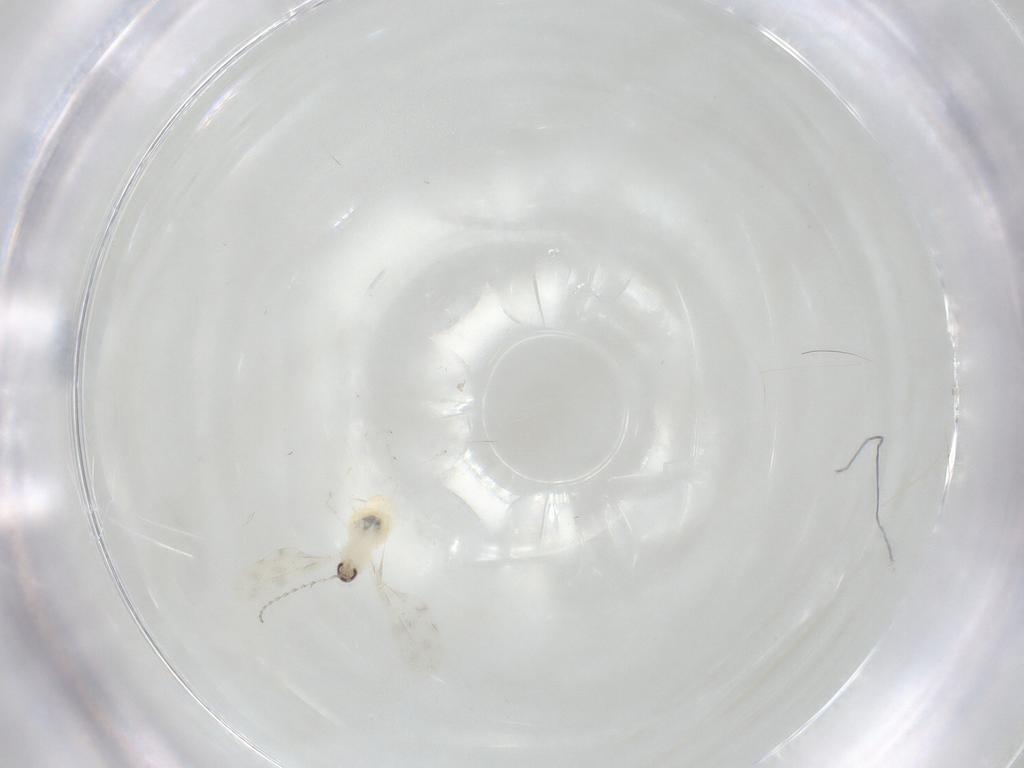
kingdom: Animalia
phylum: Arthropoda
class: Insecta
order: Diptera
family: Cecidomyiidae
